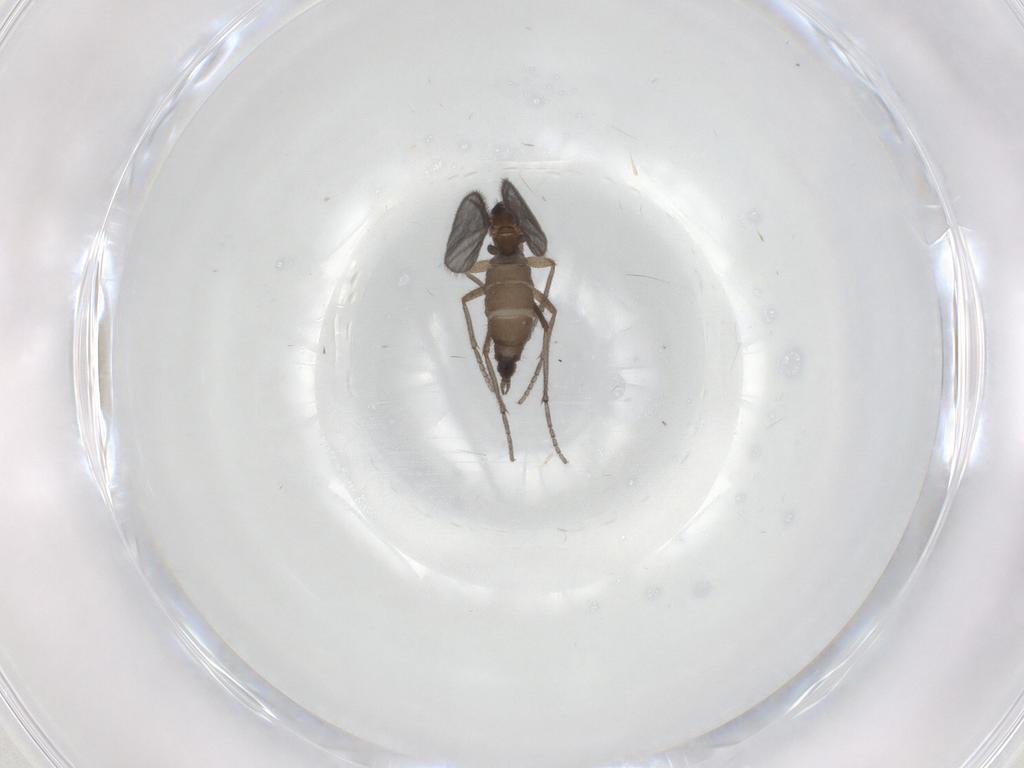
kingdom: Animalia
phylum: Arthropoda
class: Insecta
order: Diptera
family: Sciaridae
